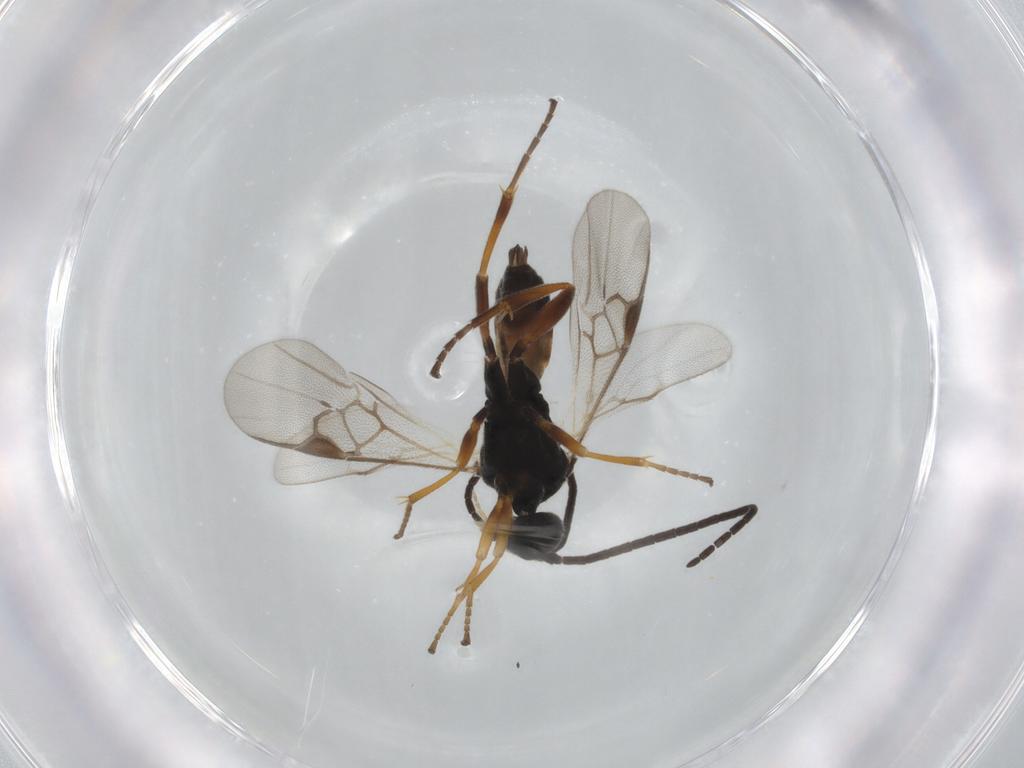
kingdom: Animalia
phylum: Arthropoda
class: Insecta
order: Hymenoptera
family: Braconidae
